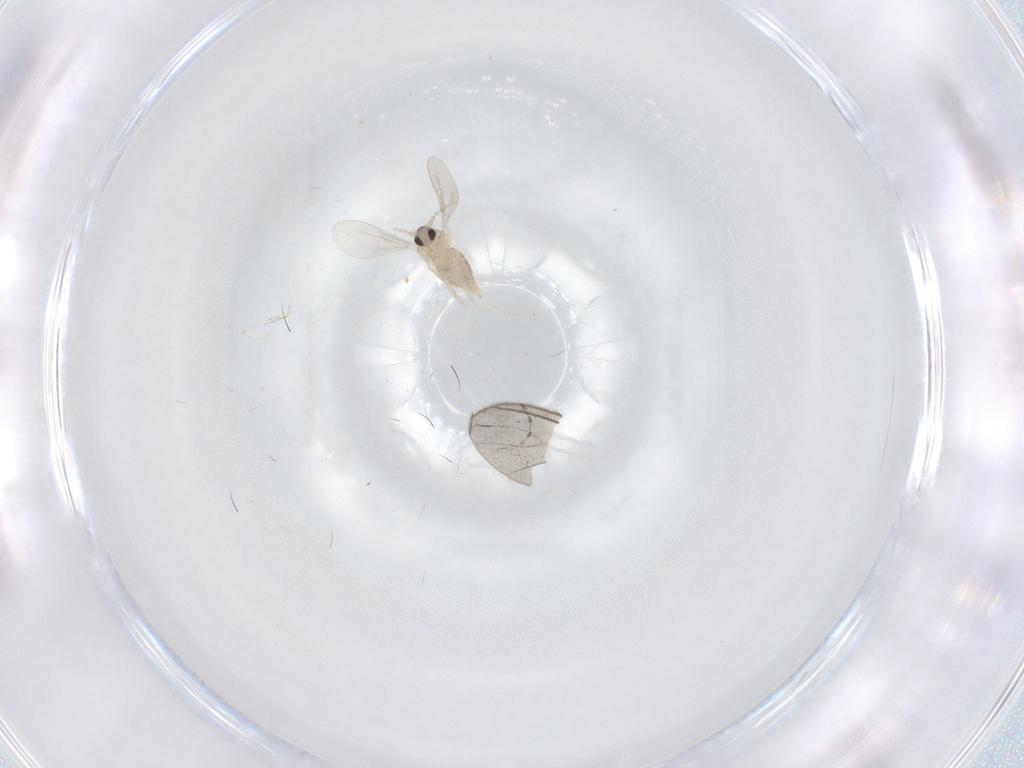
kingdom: Animalia
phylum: Arthropoda
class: Insecta
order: Diptera
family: Cecidomyiidae
